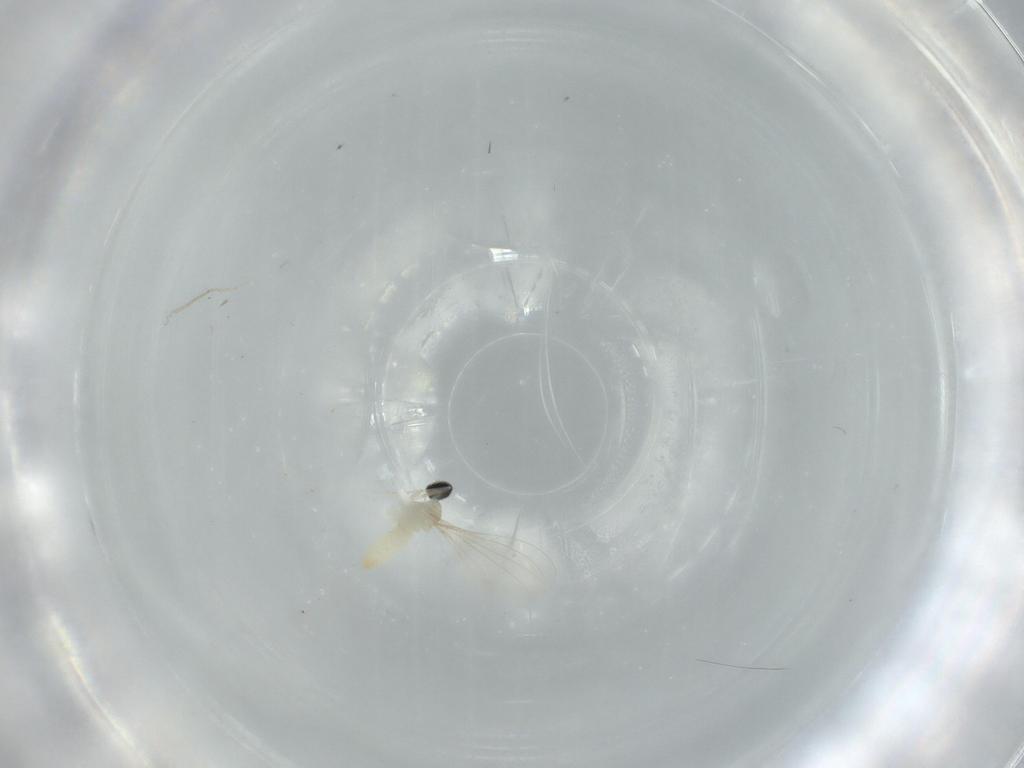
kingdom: Animalia
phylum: Arthropoda
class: Insecta
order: Diptera
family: Cecidomyiidae
